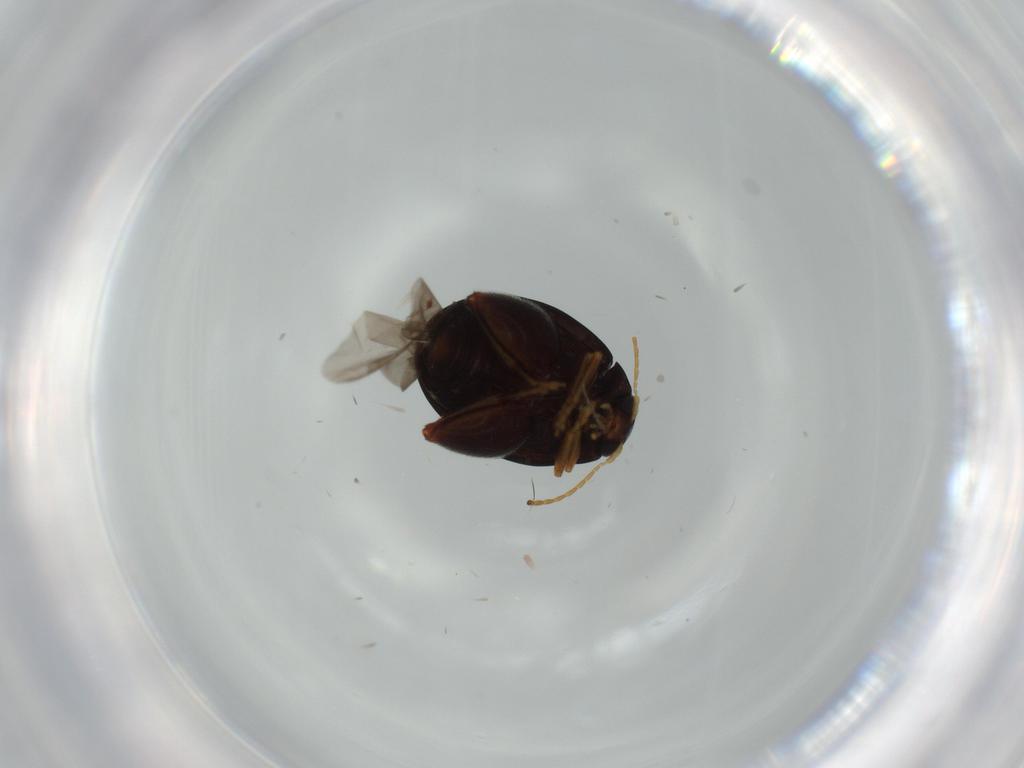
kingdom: Animalia
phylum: Arthropoda
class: Insecta
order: Coleoptera
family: Chrysomelidae
